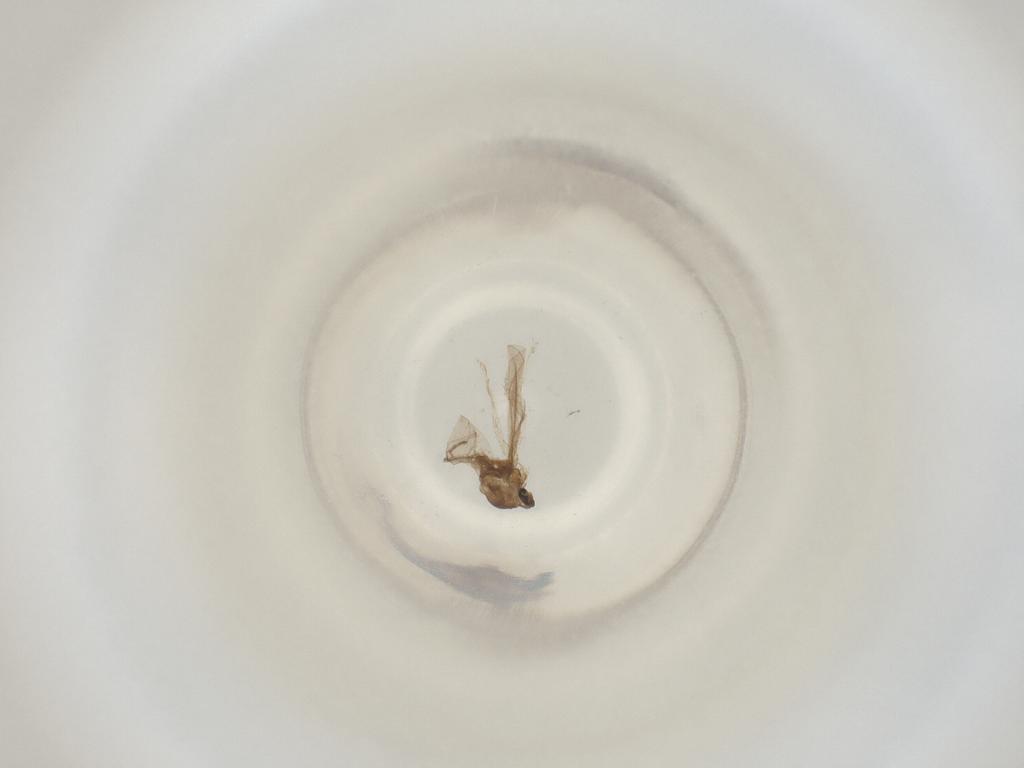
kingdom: Animalia
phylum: Arthropoda
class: Insecta
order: Diptera
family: Cecidomyiidae
